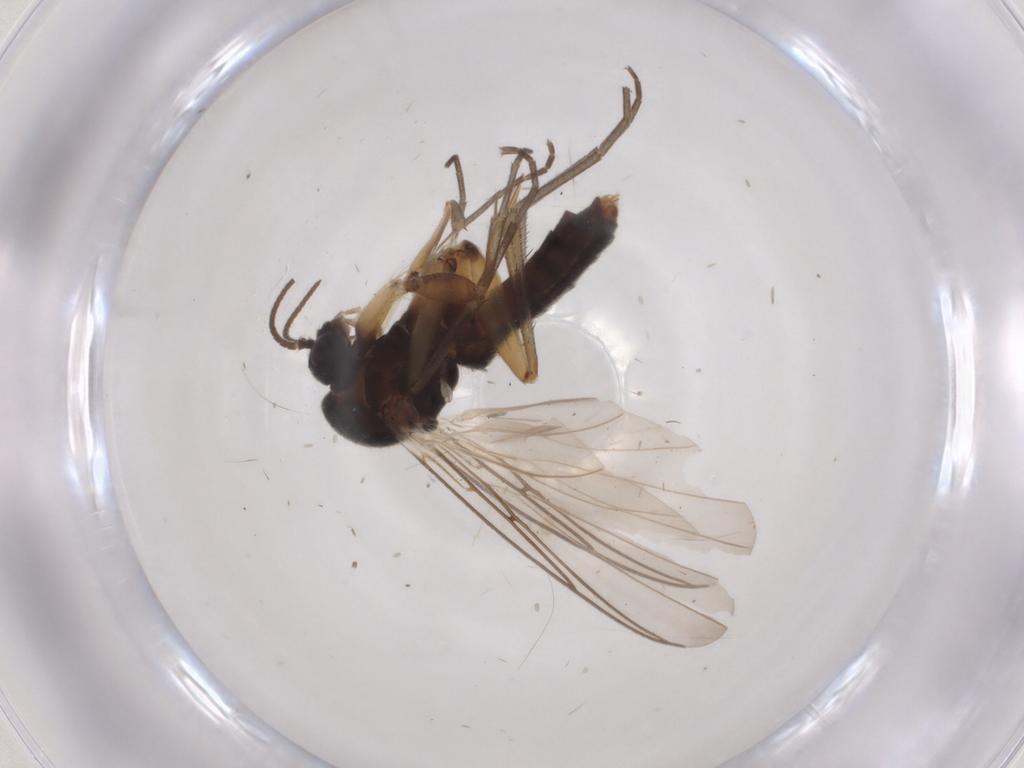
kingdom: Animalia
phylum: Arthropoda
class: Insecta
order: Diptera
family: Mycetophilidae
